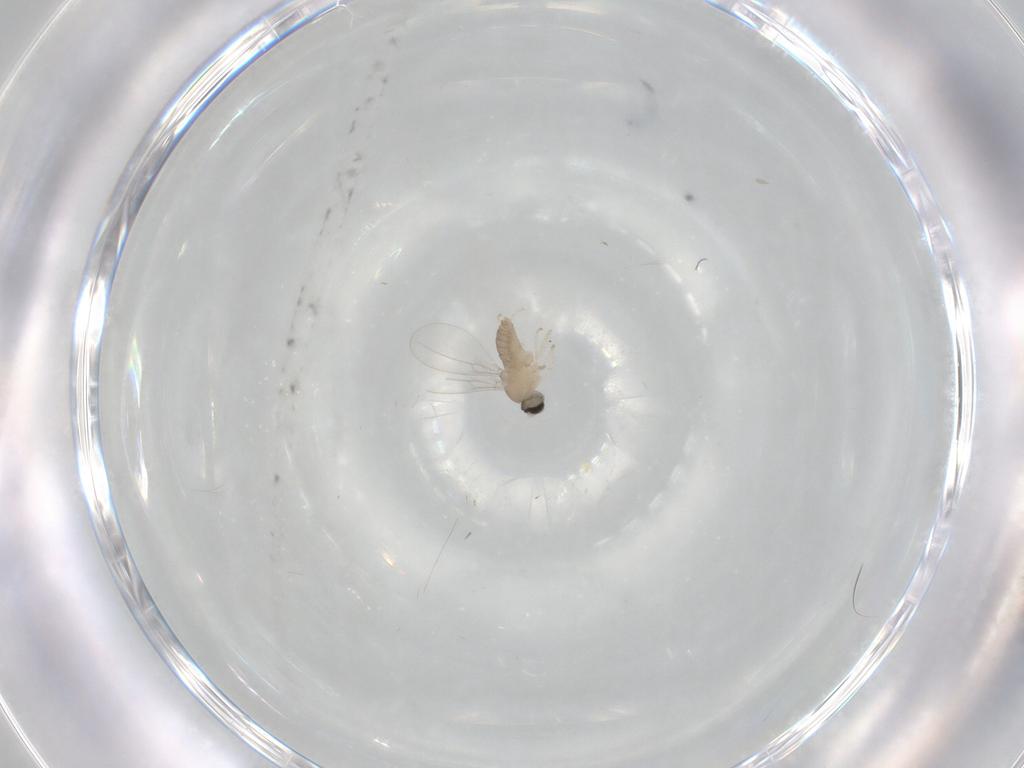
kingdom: Animalia
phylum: Arthropoda
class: Insecta
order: Diptera
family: Cecidomyiidae
